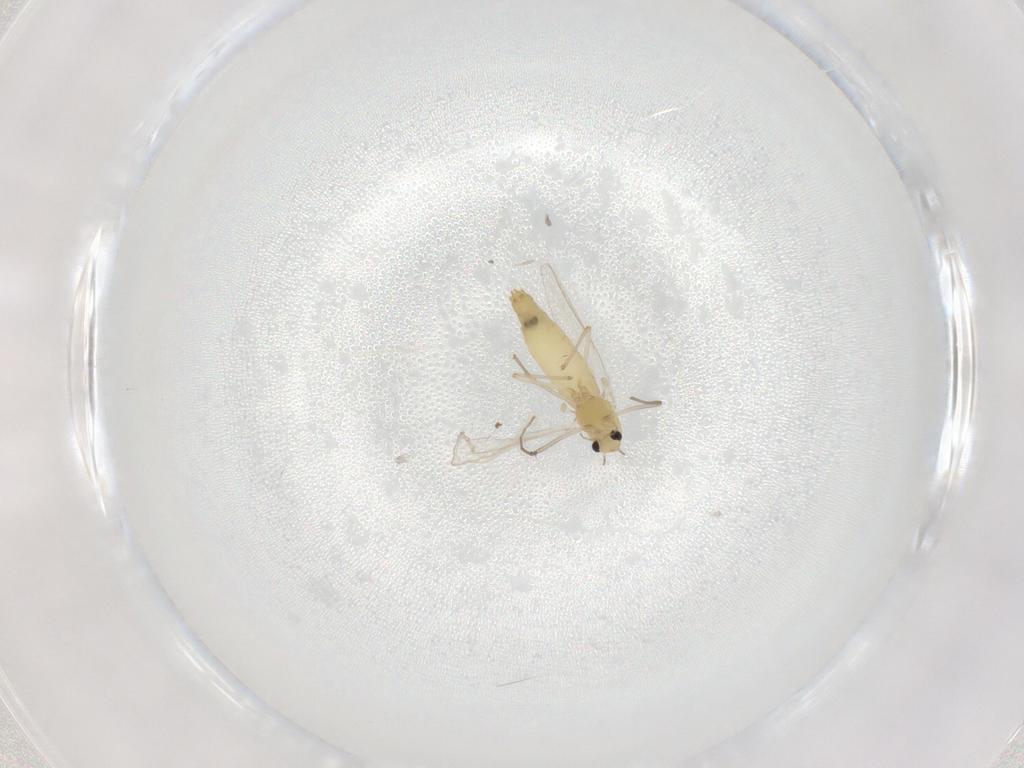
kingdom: Animalia
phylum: Arthropoda
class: Insecta
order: Diptera
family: Chironomidae
